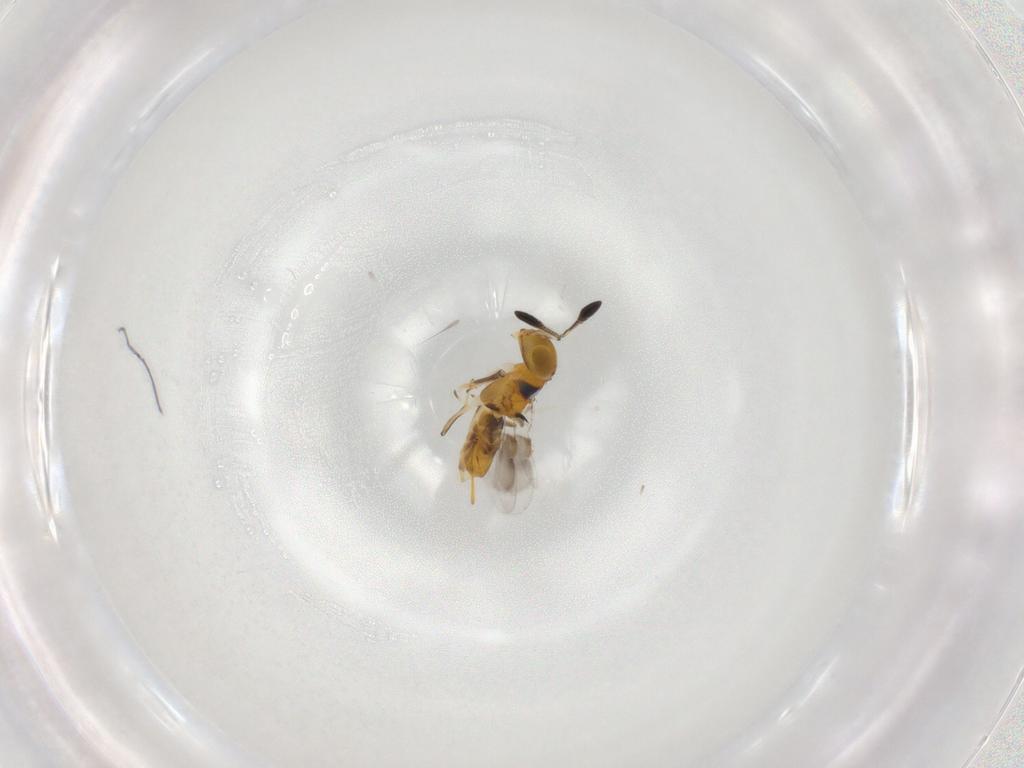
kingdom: Animalia
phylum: Arthropoda
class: Insecta
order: Hymenoptera
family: Encyrtidae
